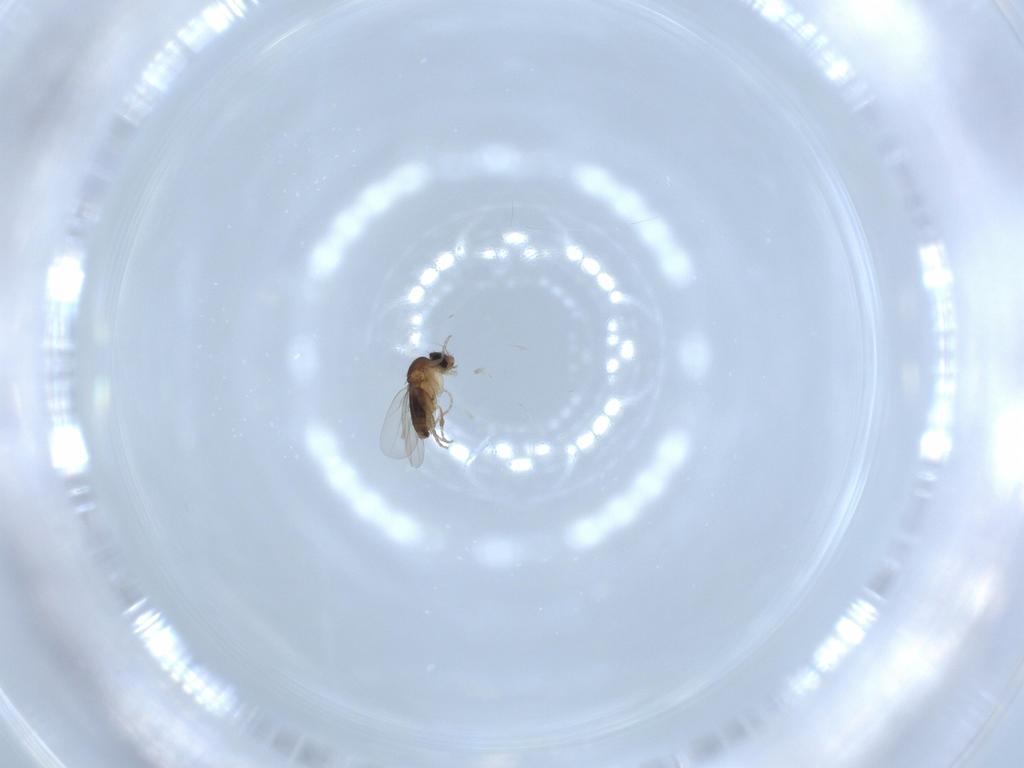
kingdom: Animalia
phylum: Arthropoda
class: Insecta
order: Diptera
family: Phoridae
